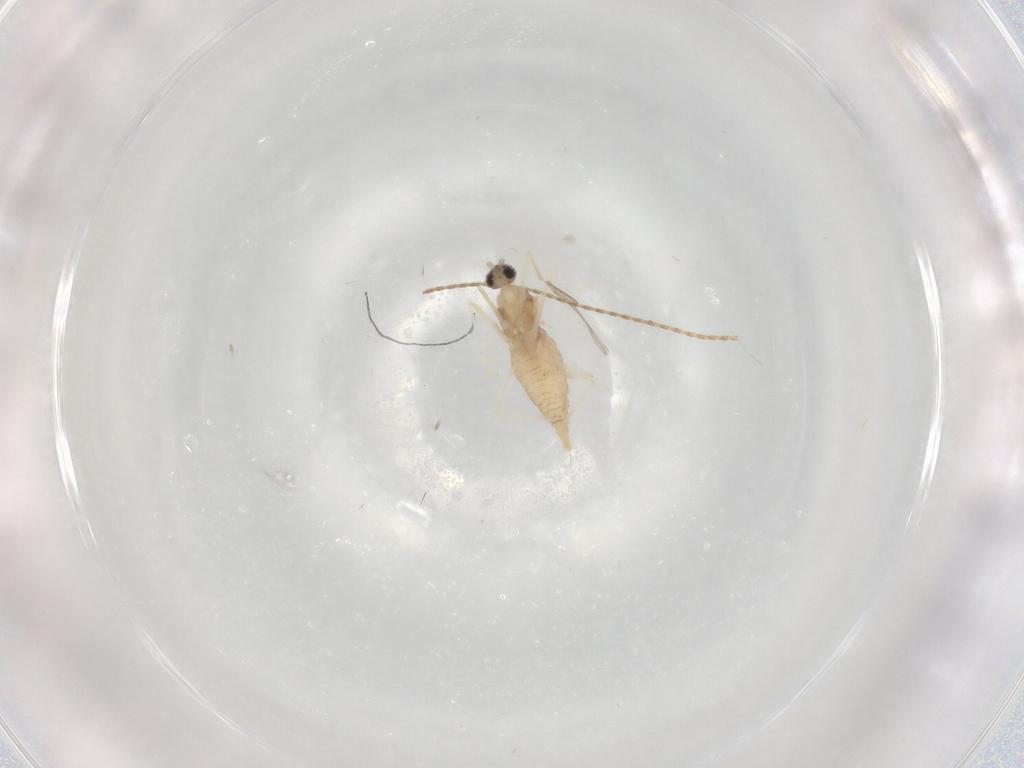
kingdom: Animalia
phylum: Arthropoda
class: Insecta
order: Diptera
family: Cecidomyiidae
